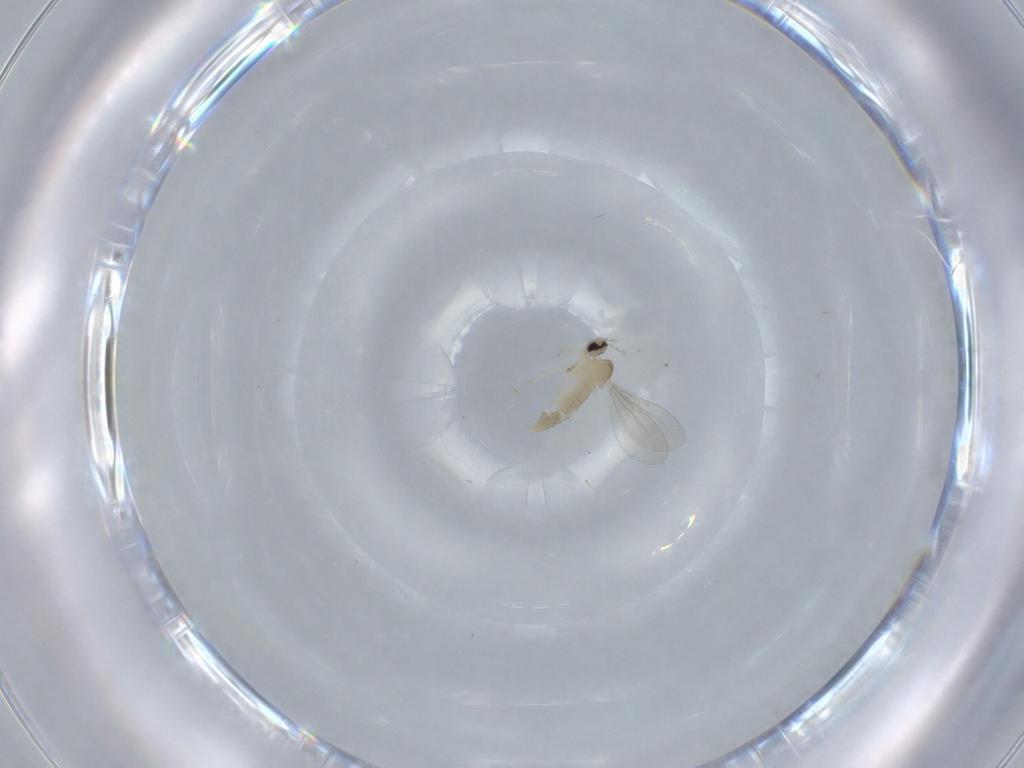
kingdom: Animalia
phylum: Arthropoda
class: Insecta
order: Diptera
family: Cecidomyiidae
